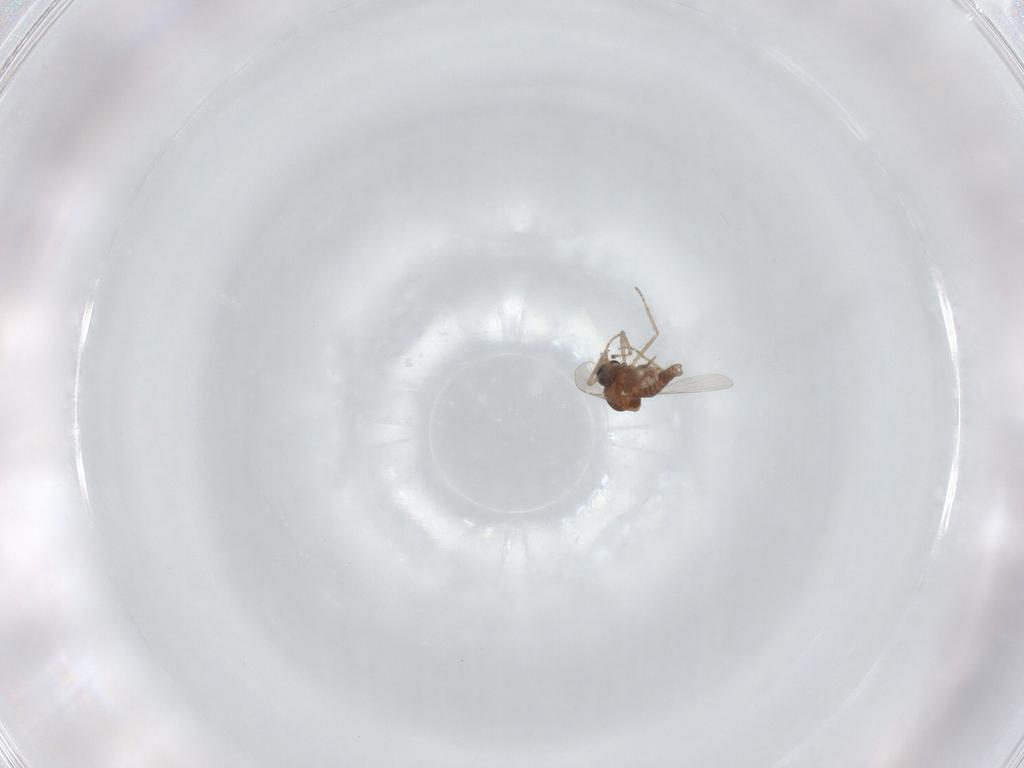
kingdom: Animalia
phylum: Arthropoda
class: Insecta
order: Diptera
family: Ceratopogonidae
